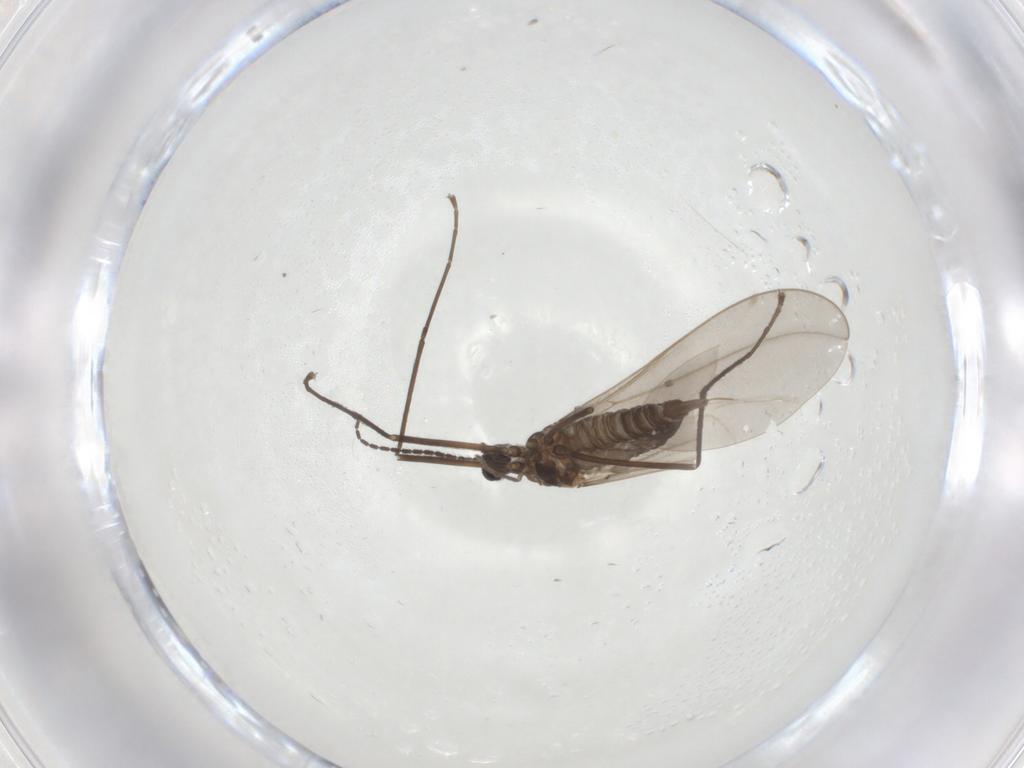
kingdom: Animalia
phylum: Arthropoda
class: Insecta
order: Diptera
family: Cecidomyiidae
